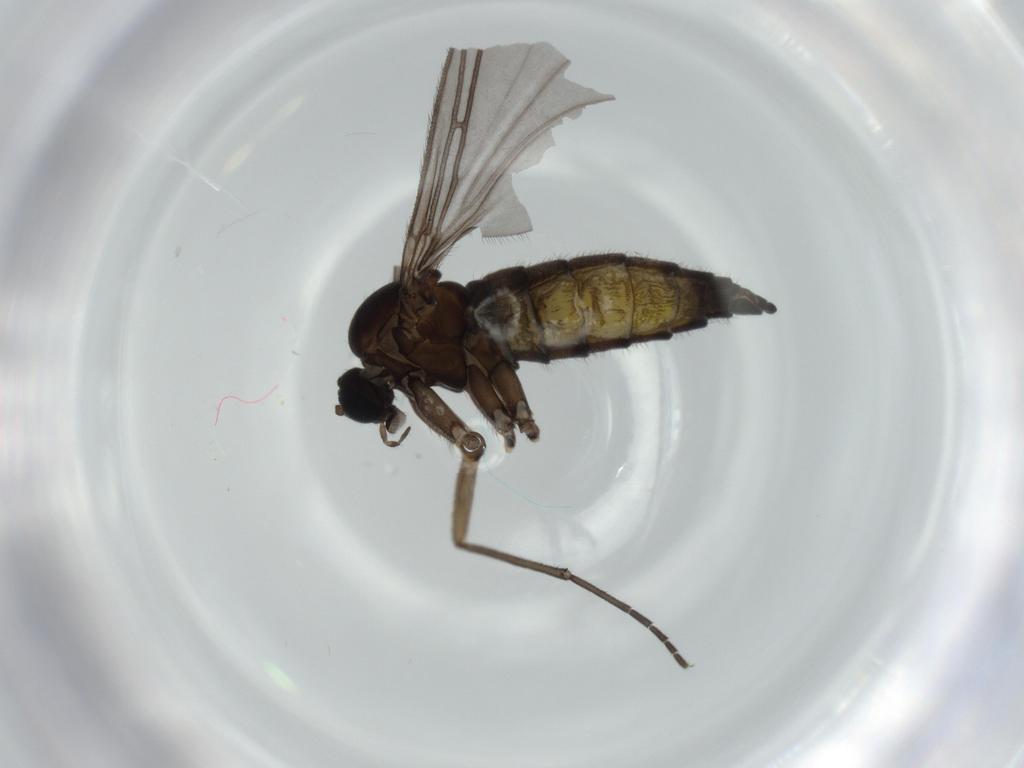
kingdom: Animalia
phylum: Arthropoda
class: Insecta
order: Diptera
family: Sciaridae
